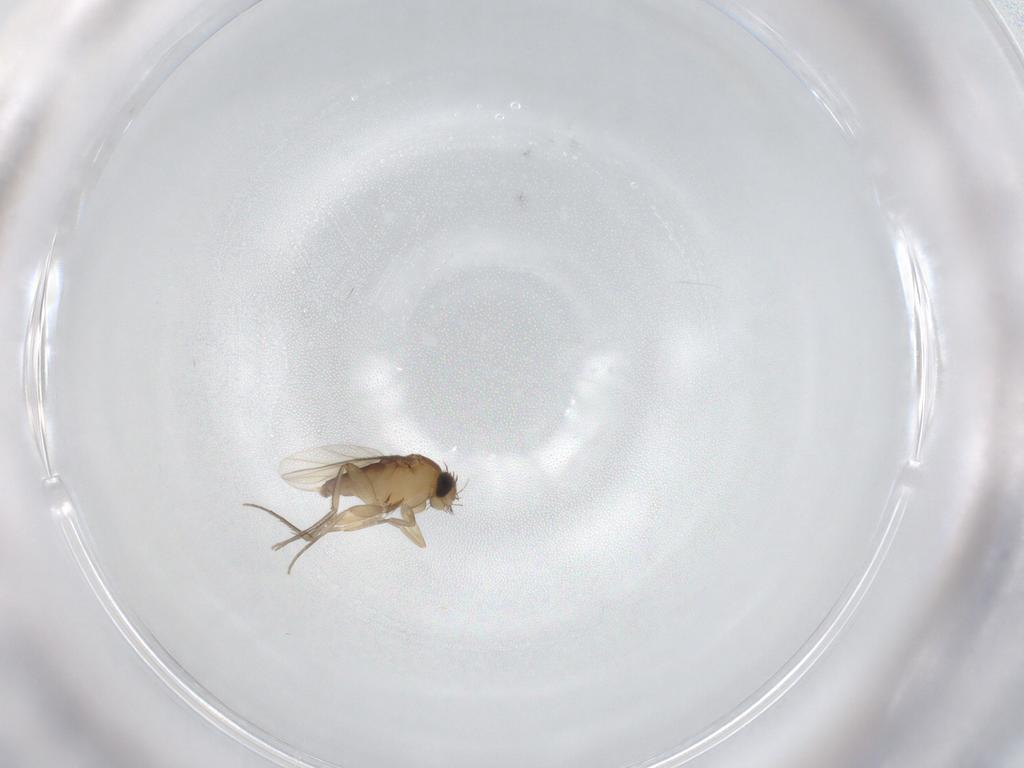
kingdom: Animalia
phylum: Arthropoda
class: Insecta
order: Diptera
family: Phoridae
